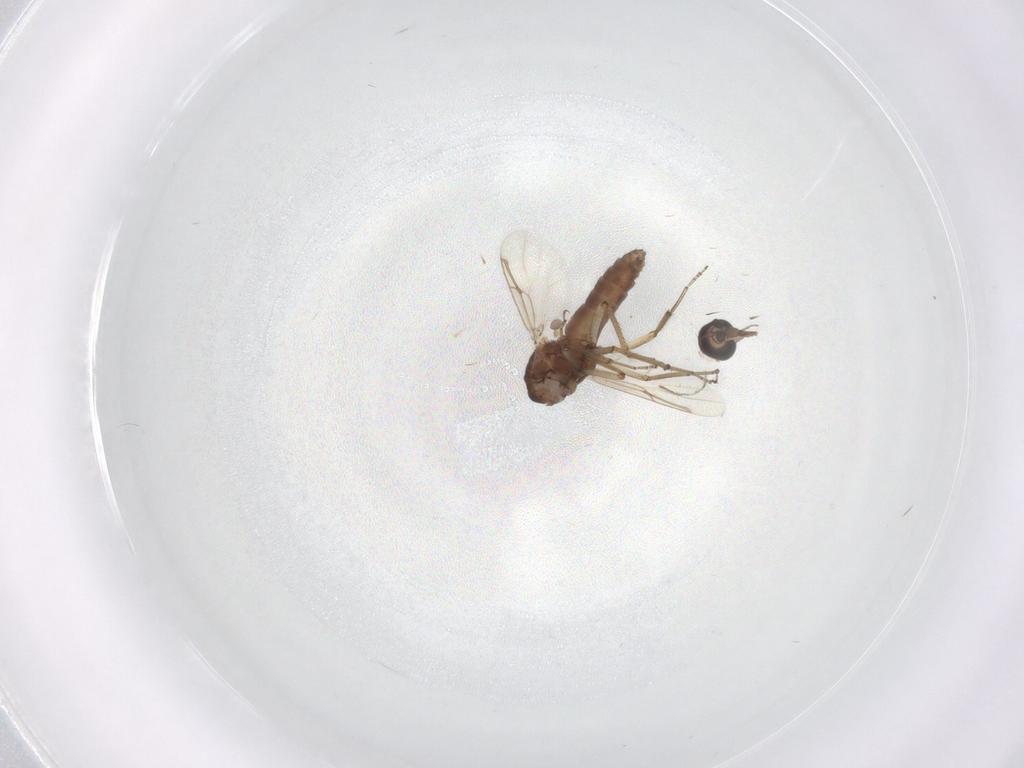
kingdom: Animalia
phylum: Arthropoda
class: Insecta
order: Diptera
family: Ceratopogonidae
